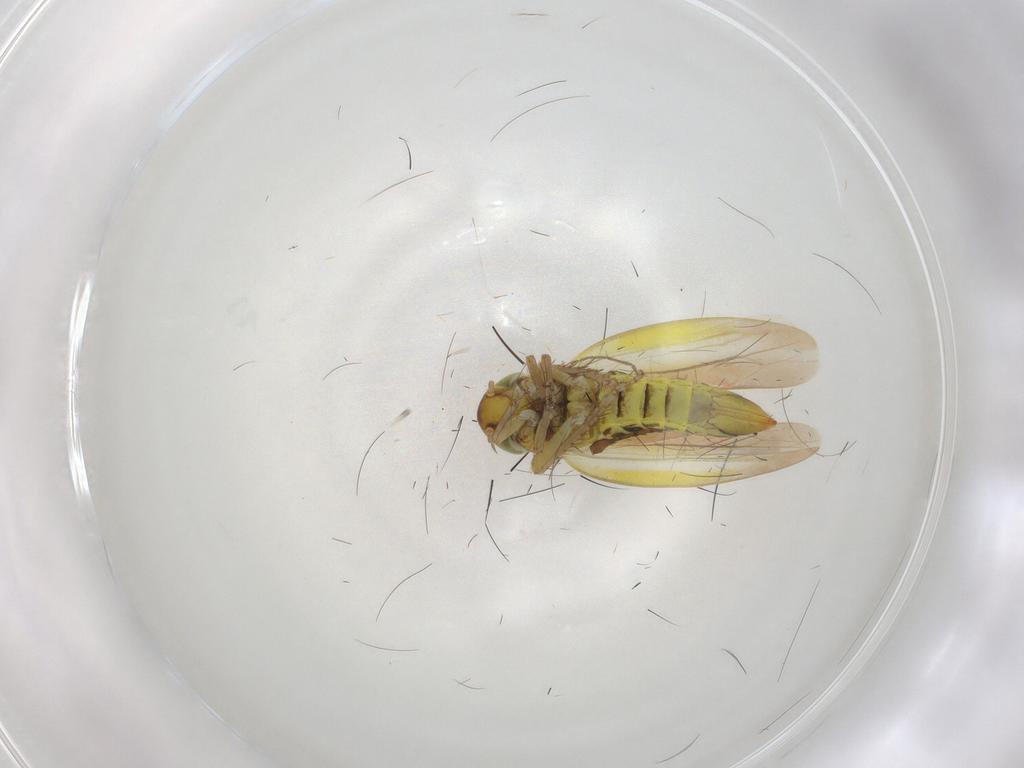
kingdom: Animalia
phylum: Arthropoda
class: Insecta
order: Hemiptera
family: Cicadellidae
